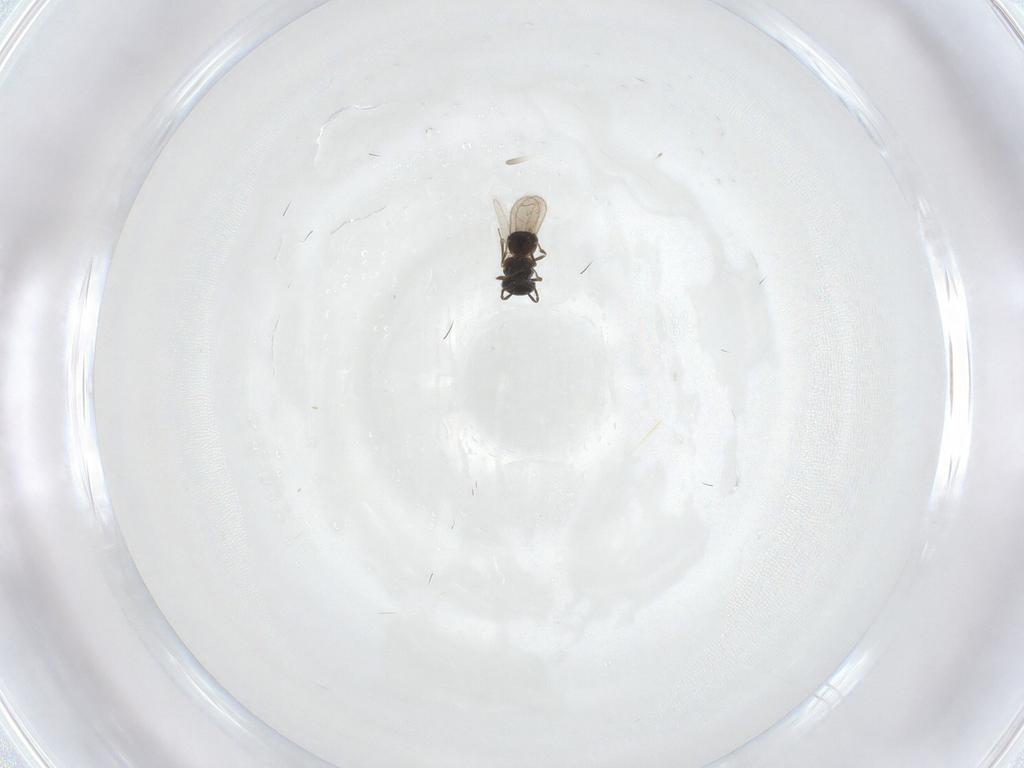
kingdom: Animalia
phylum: Arthropoda
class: Insecta
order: Hymenoptera
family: Scelionidae
